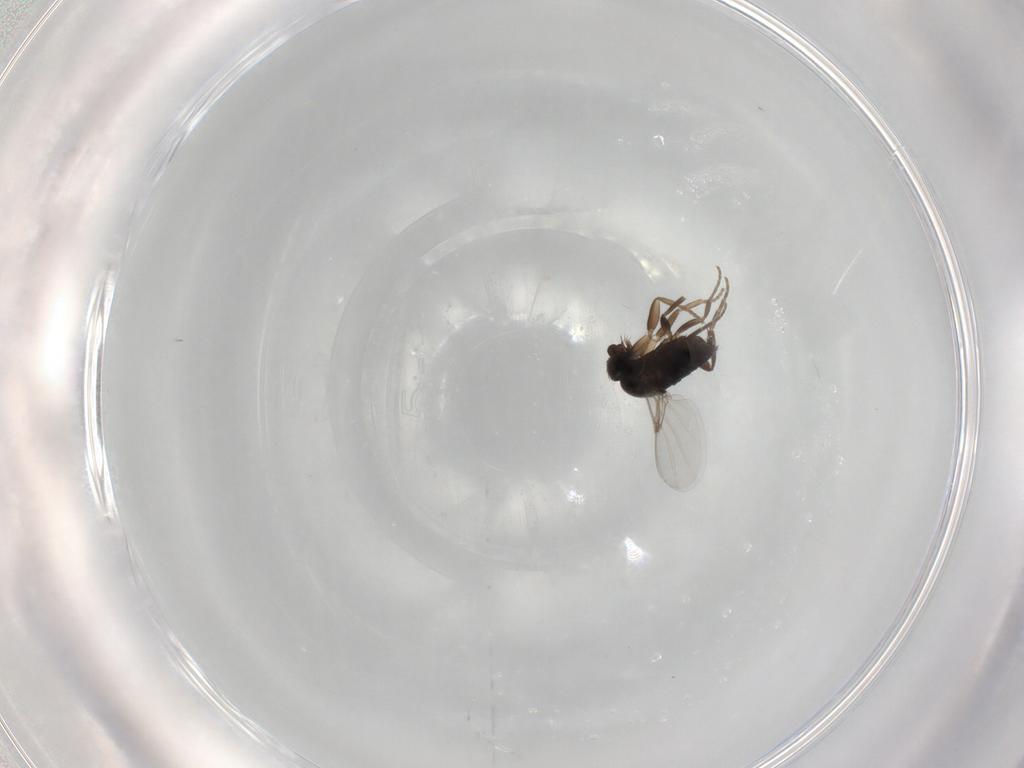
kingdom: Animalia
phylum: Arthropoda
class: Insecta
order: Diptera
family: Phoridae
